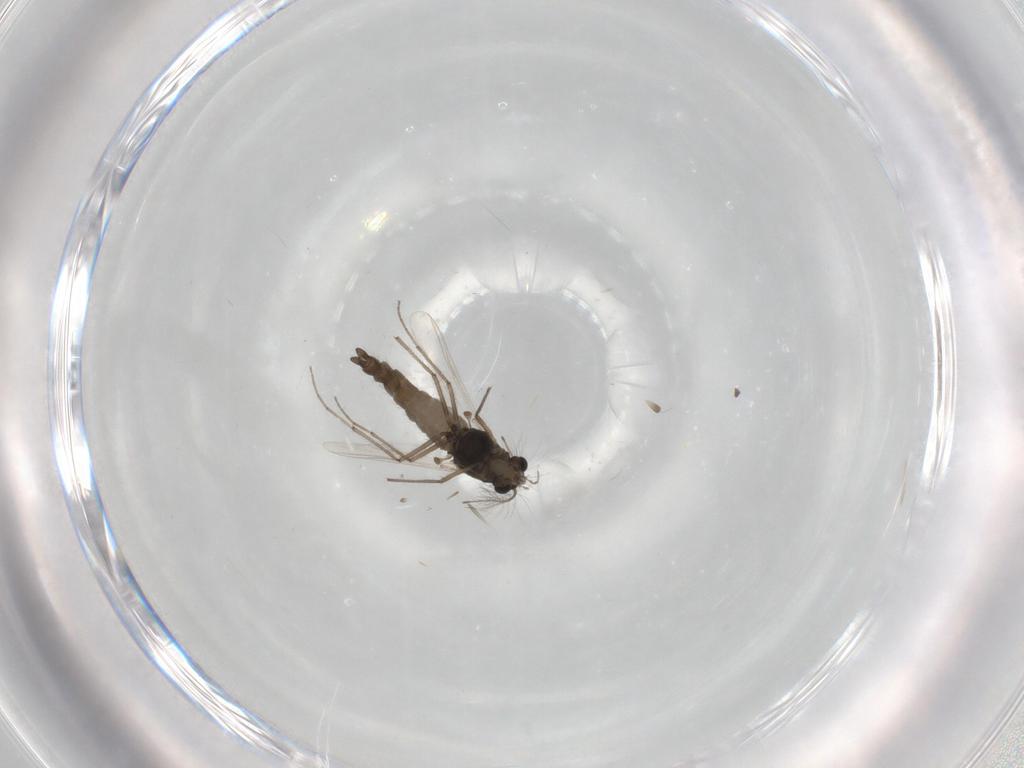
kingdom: Animalia
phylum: Arthropoda
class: Insecta
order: Diptera
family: Chironomidae
